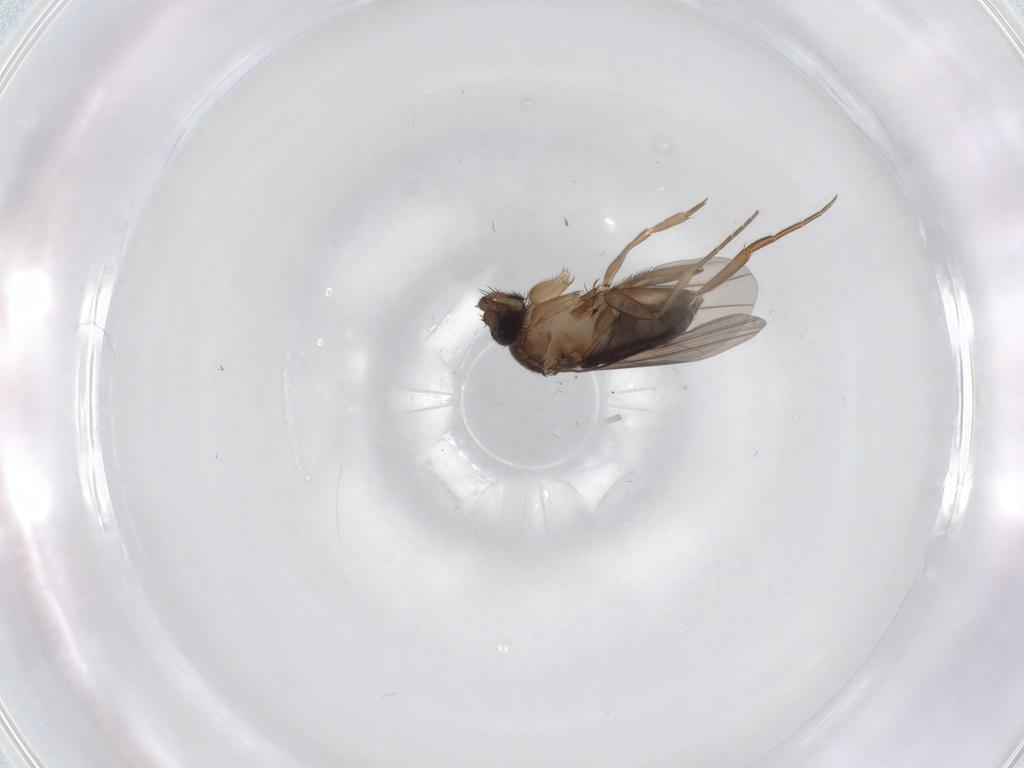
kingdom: Animalia
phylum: Arthropoda
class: Insecta
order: Diptera
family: Phoridae
